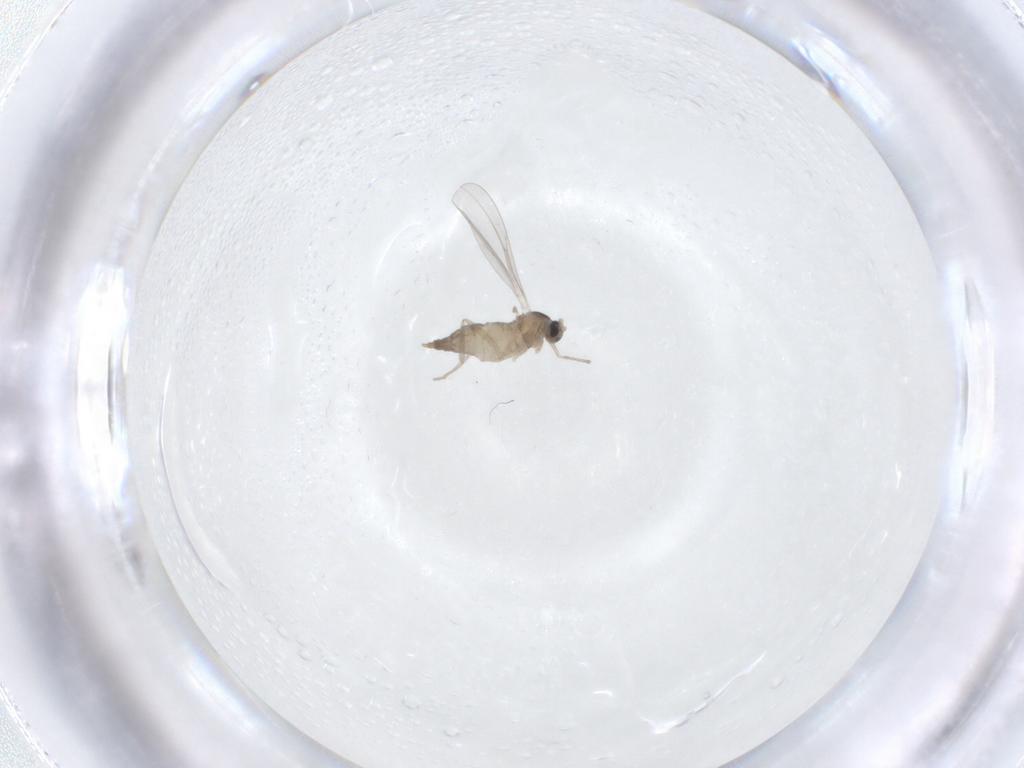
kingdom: Animalia
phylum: Arthropoda
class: Insecta
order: Diptera
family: Cecidomyiidae
